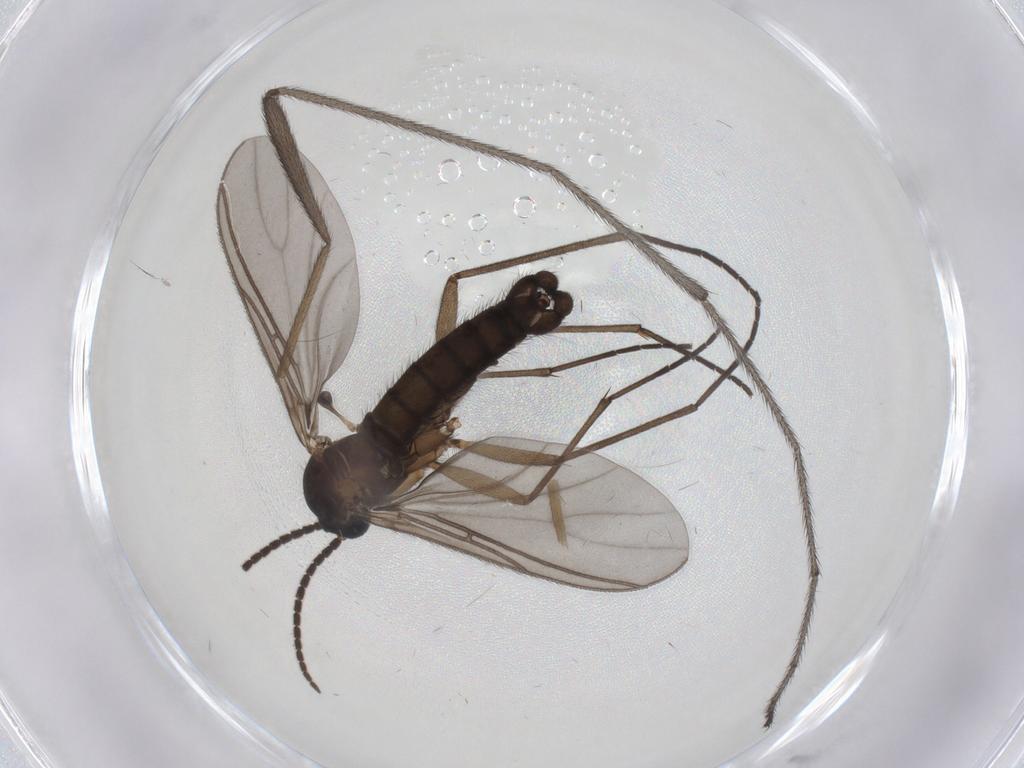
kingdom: Animalia
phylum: Arthropoda
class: Insecta
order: Diptera
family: Sciaridae
